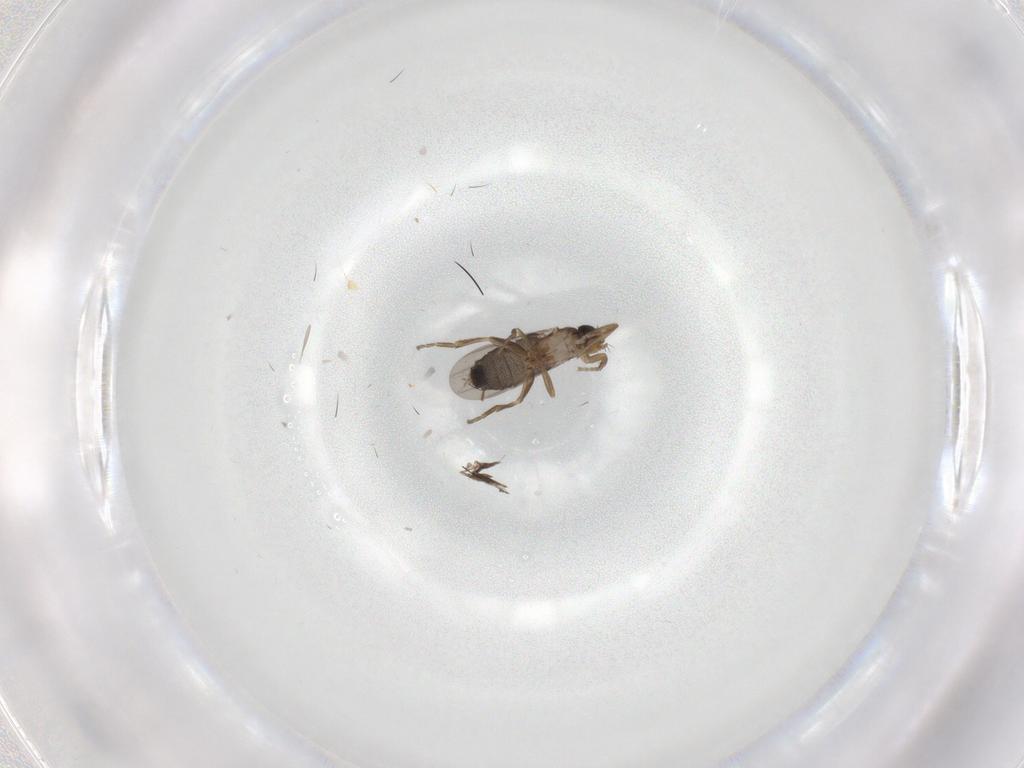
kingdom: Animalia
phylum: Arthropoda
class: Insecta
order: Diptera
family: Phoridae
